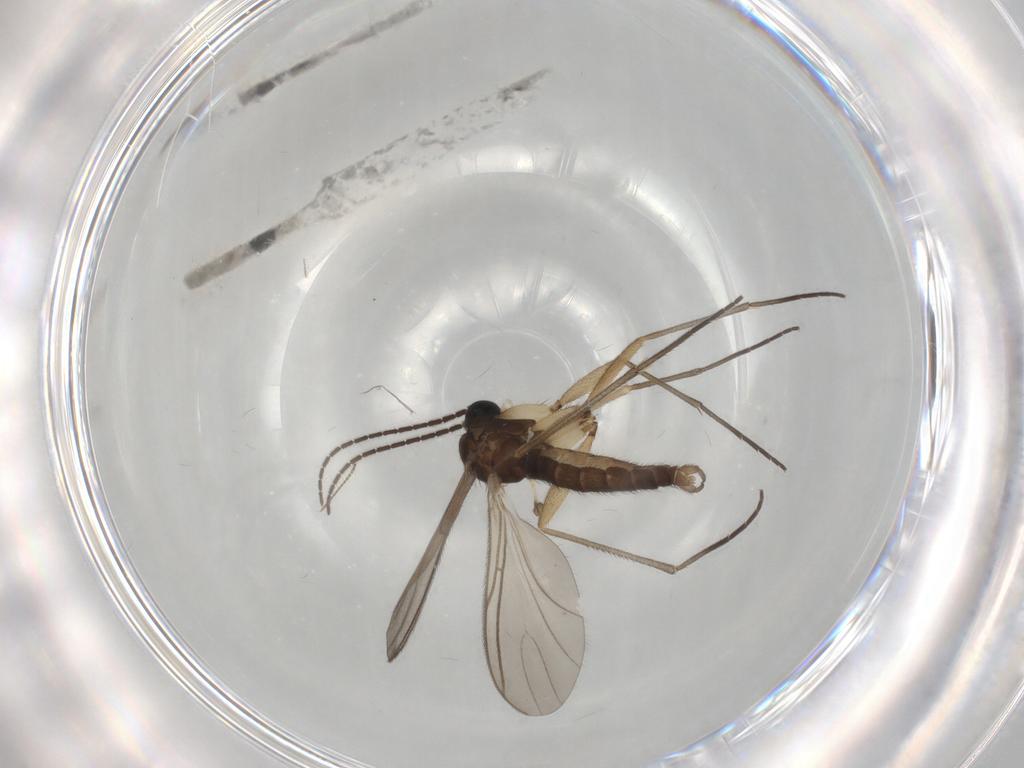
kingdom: Animalia
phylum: Arthropoda
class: Insecta
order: Diptera
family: Sciaridae
